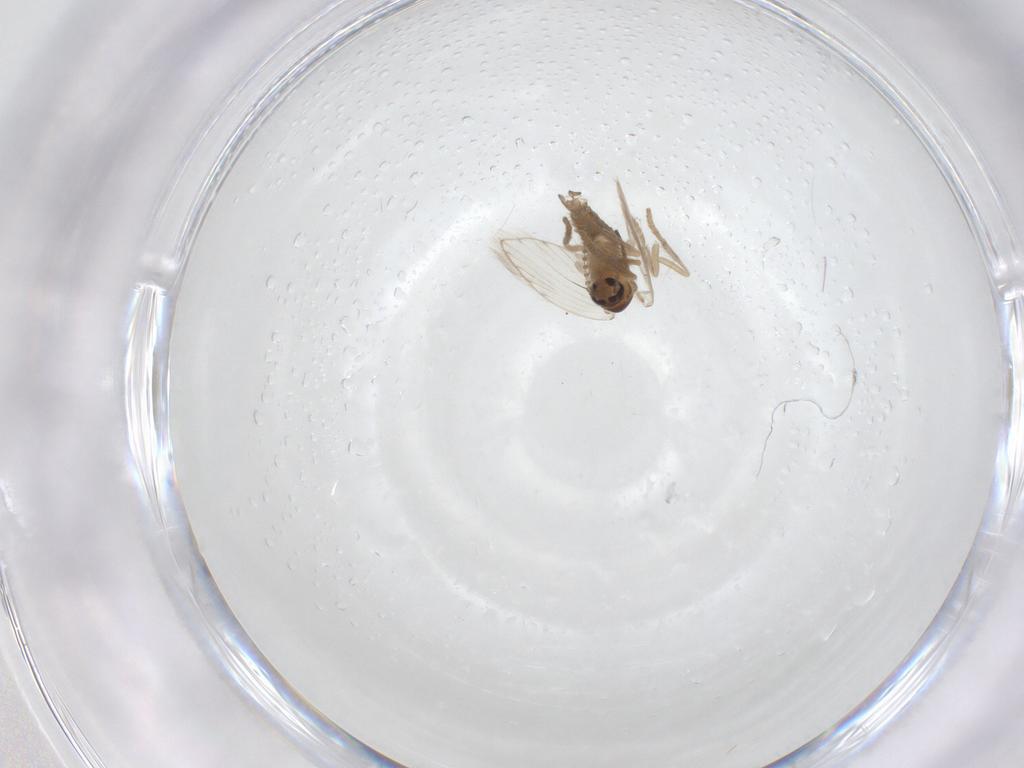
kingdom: Animalia
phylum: Arthropoda
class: Insecta
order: Diptera
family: Psychodidae
